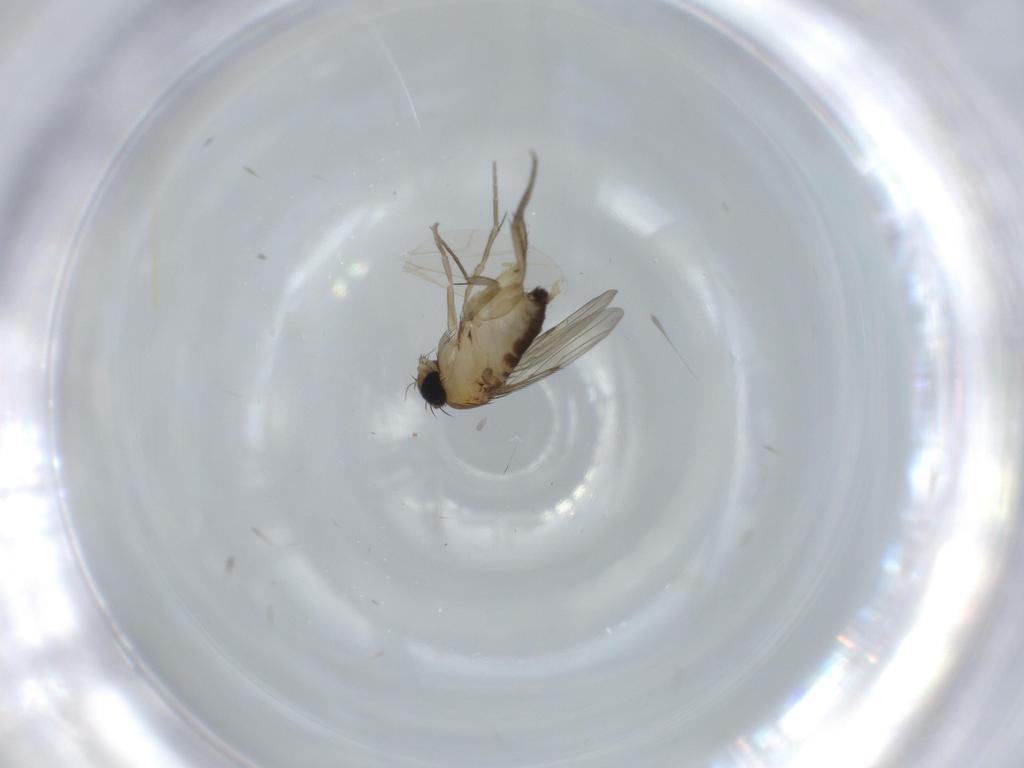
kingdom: Animalia
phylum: Arthropoda
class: Insecta
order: Diptera
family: Phoridae
